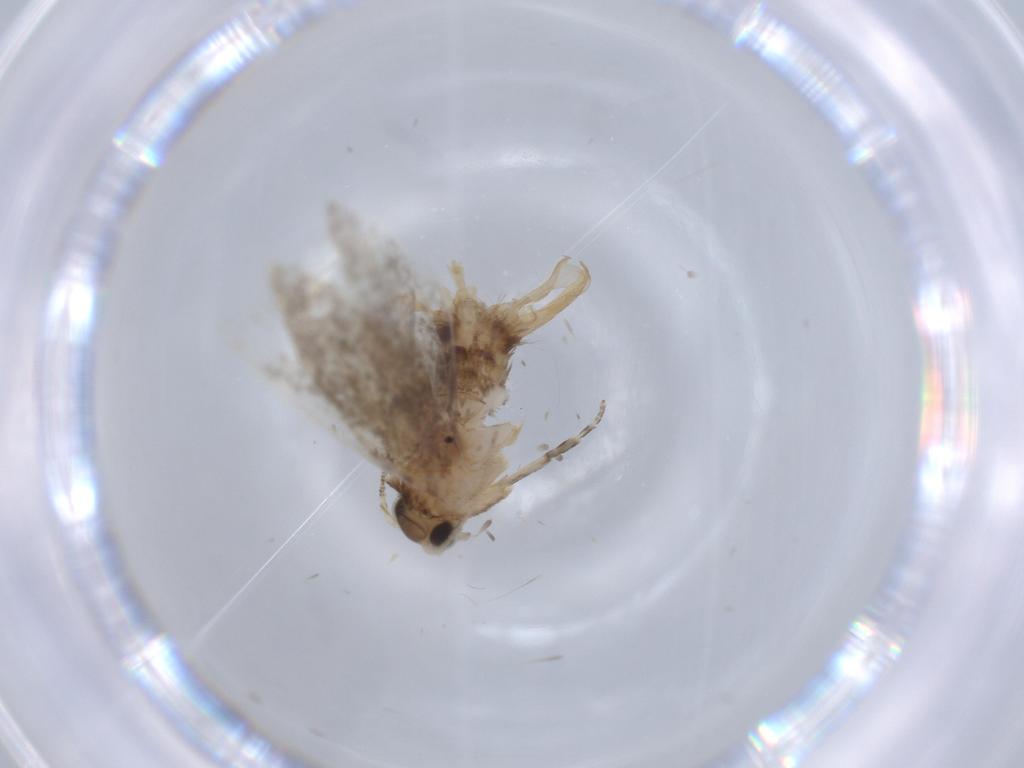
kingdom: Animalia
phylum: Arthropoda
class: Insecta
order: Lepidoptera
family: Tineidae
